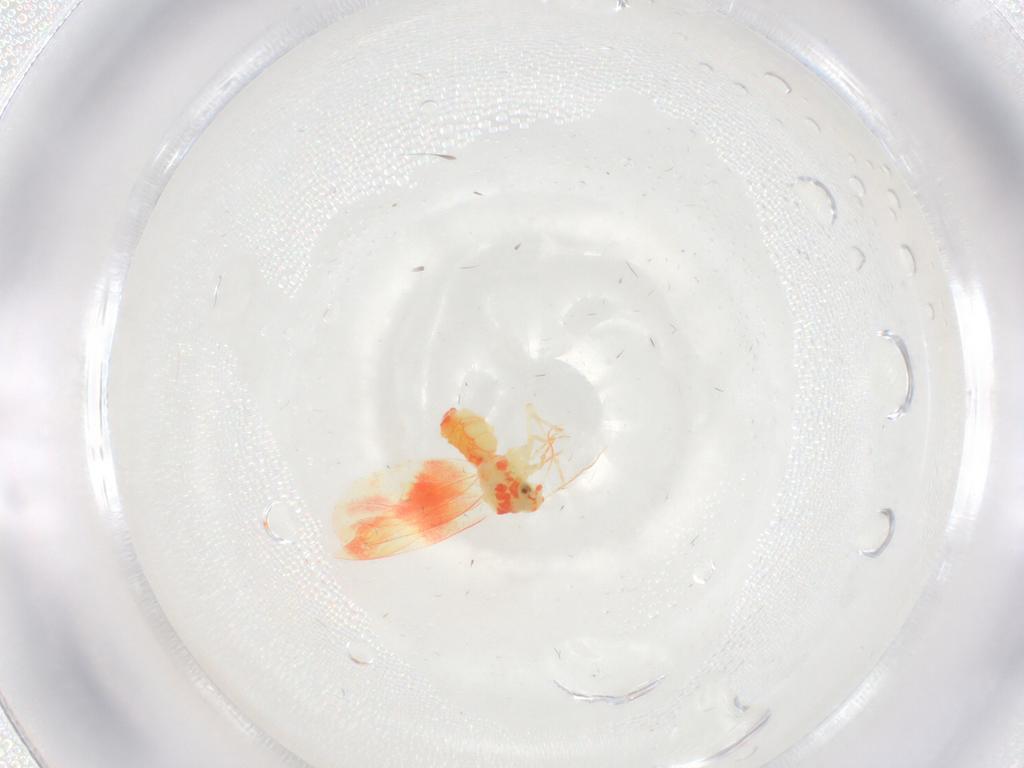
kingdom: Animalia
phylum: Arthropoda
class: Insecta
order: Hemiptera
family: Aleyrodidae
